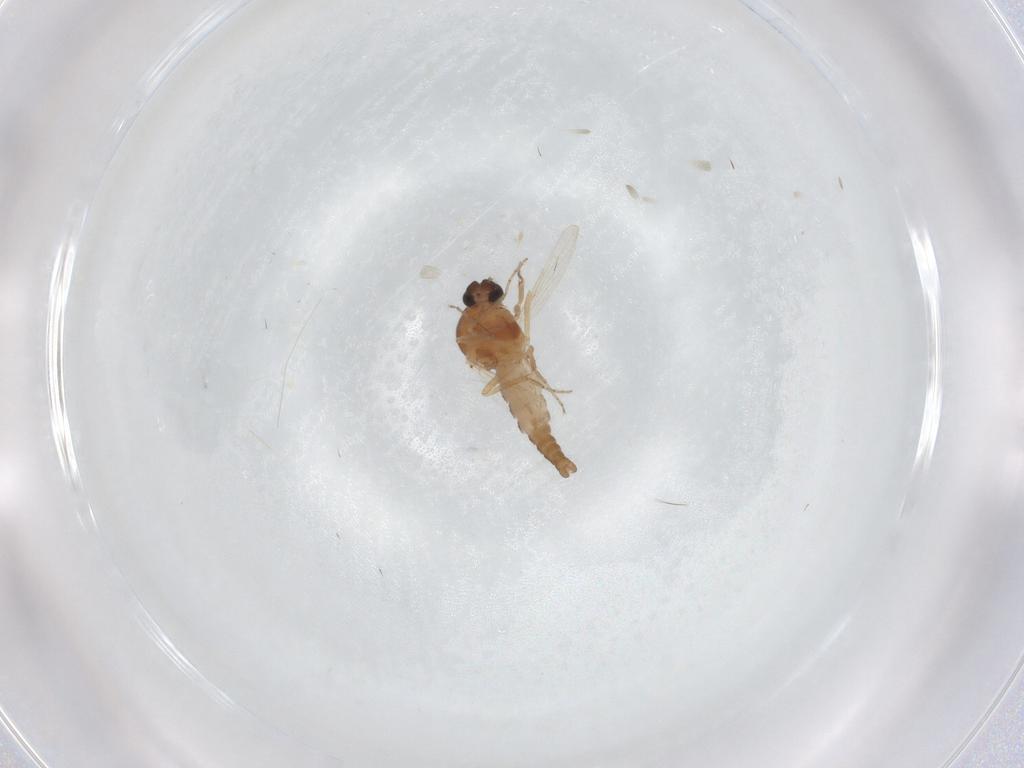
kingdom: Animalia
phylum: Arthropoda
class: Insecta
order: Diptera
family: Ceratopogonidae
